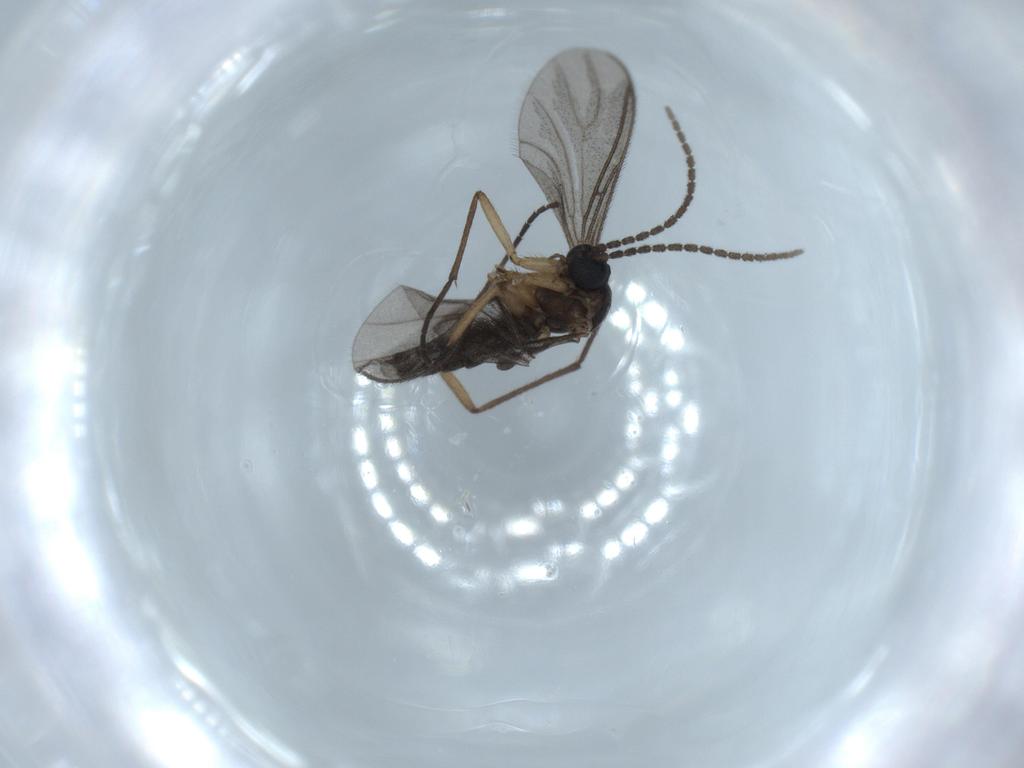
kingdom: Animalia
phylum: Arthropoda
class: Insecta
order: Diptera
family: Sciaridae
